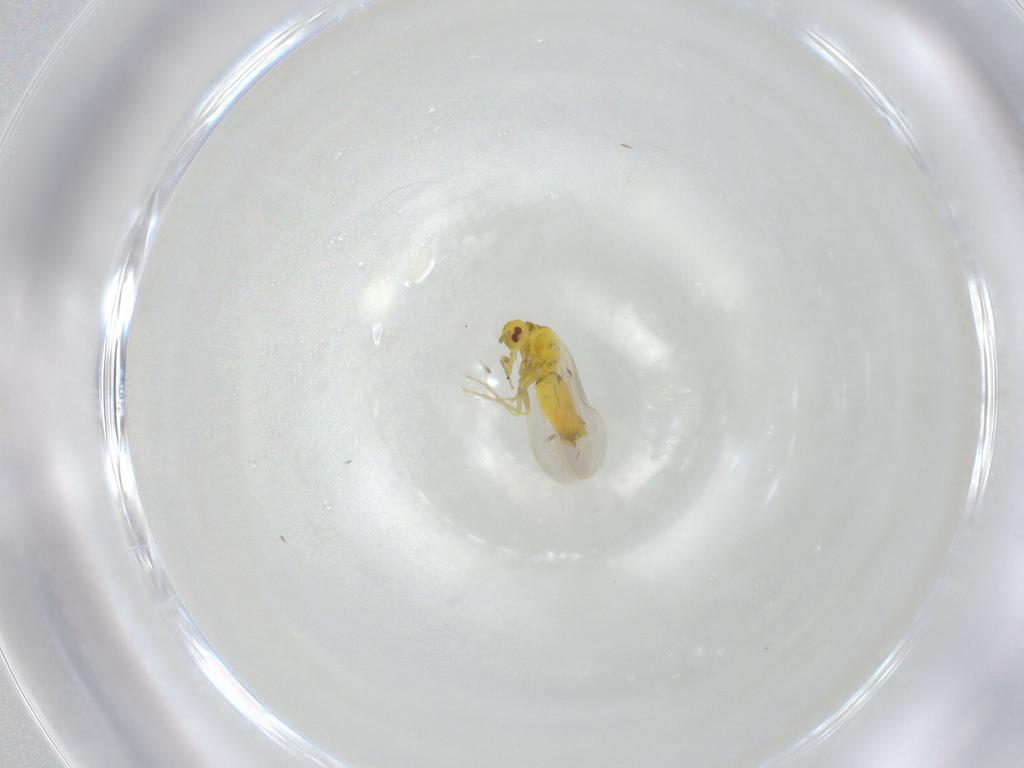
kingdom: Animalia
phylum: Arthropoda
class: Insecta
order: Hemiptera
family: Aleyrodidae
